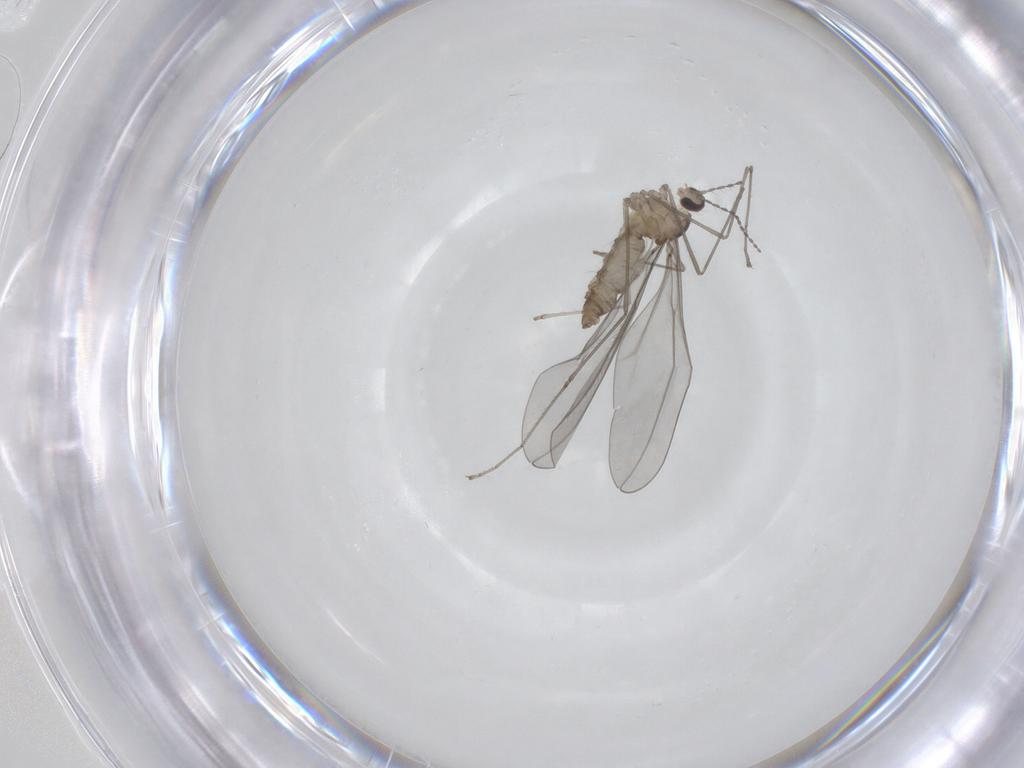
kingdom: Animalia
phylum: Arthropoda
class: Insecta
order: Diptera
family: Cecidomyiidae
